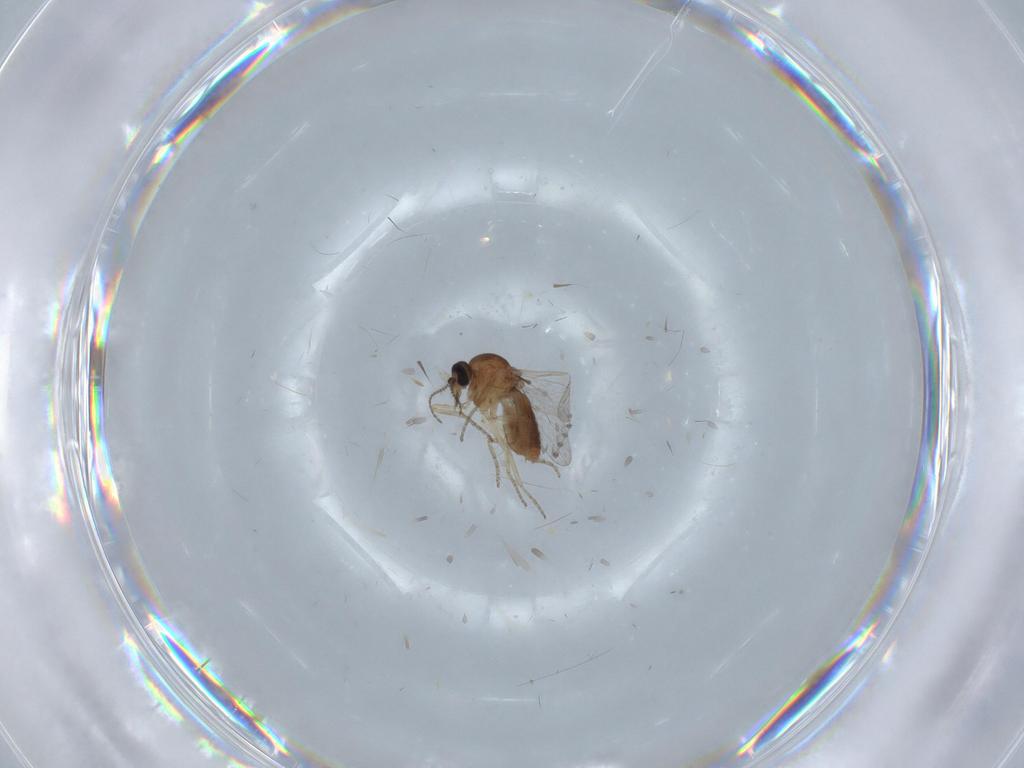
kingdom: Animalia
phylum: Arthropoda
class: Insecta
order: Diptera
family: Ceratopogonidae
